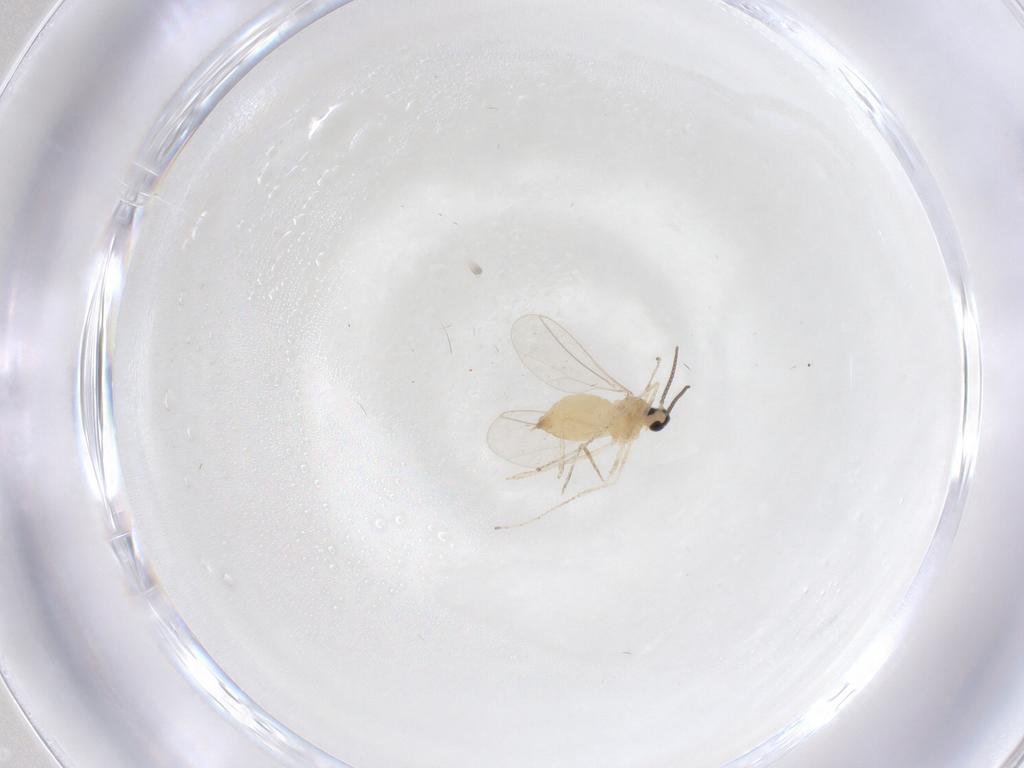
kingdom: Animalia
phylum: Arthropoda
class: Insecta
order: Diptera
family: Cecidomyiidae
